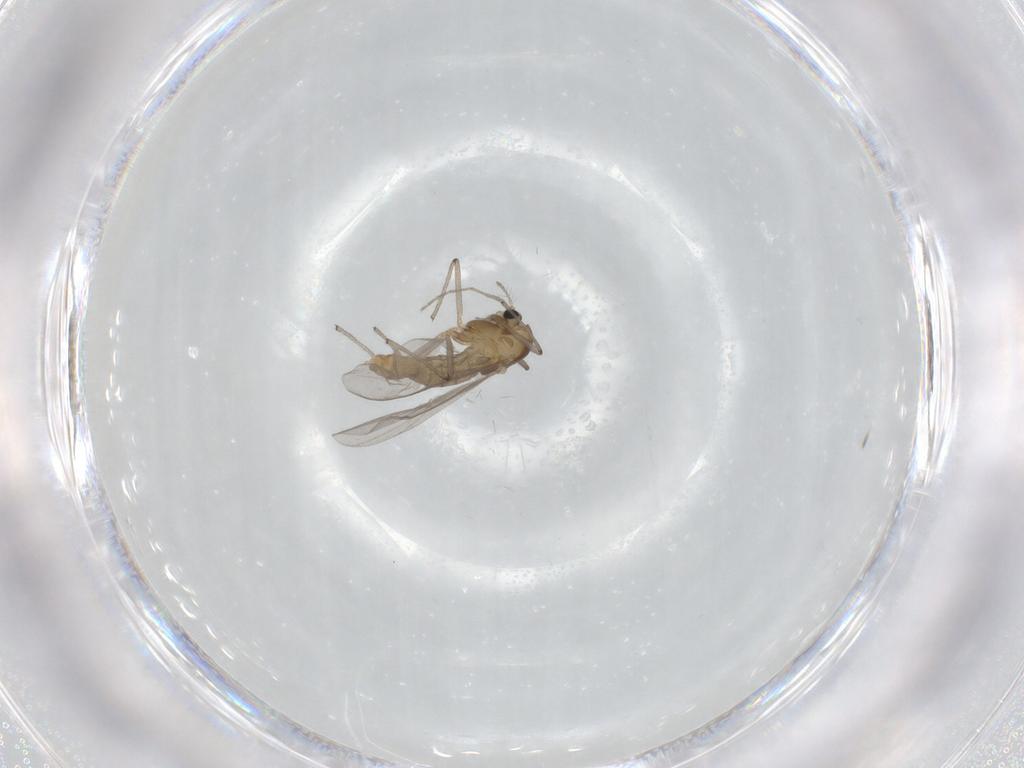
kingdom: Animalia
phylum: Arthropoda
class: Insecta
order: Diptera
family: Chironomidae
